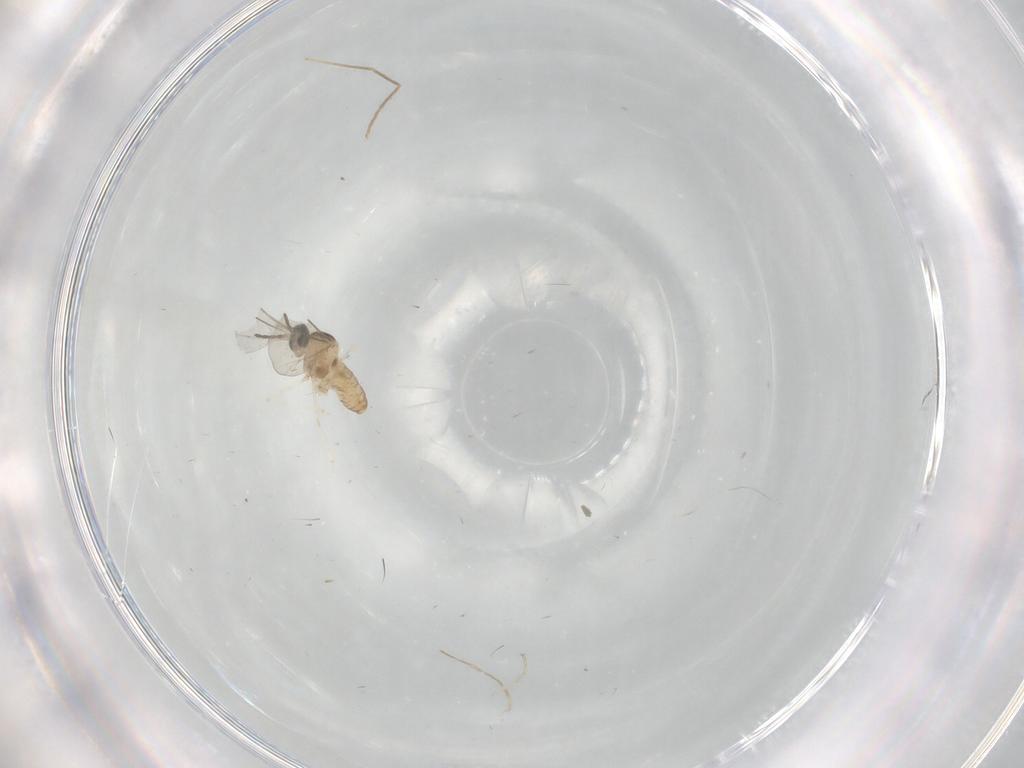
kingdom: Animalia
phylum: Arthropoda
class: Insecta
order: Diptera
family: Cecidomyiidae
